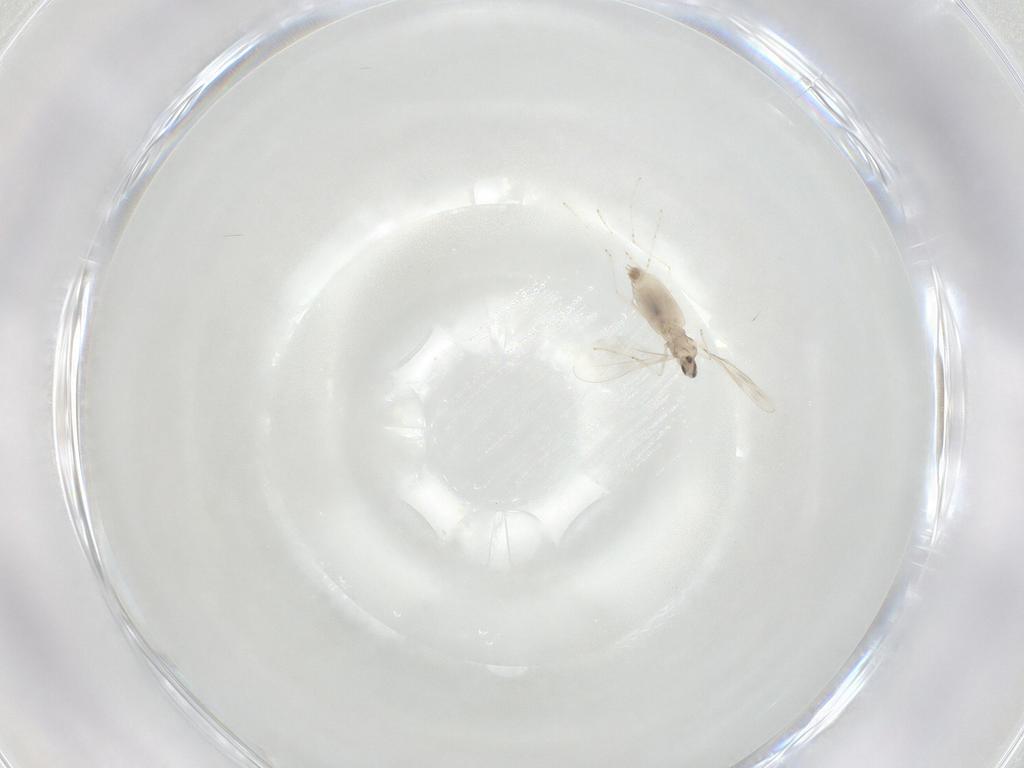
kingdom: Animalia
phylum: Arthropoda
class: Insecta
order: Diptera
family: Cecidomyiidae
